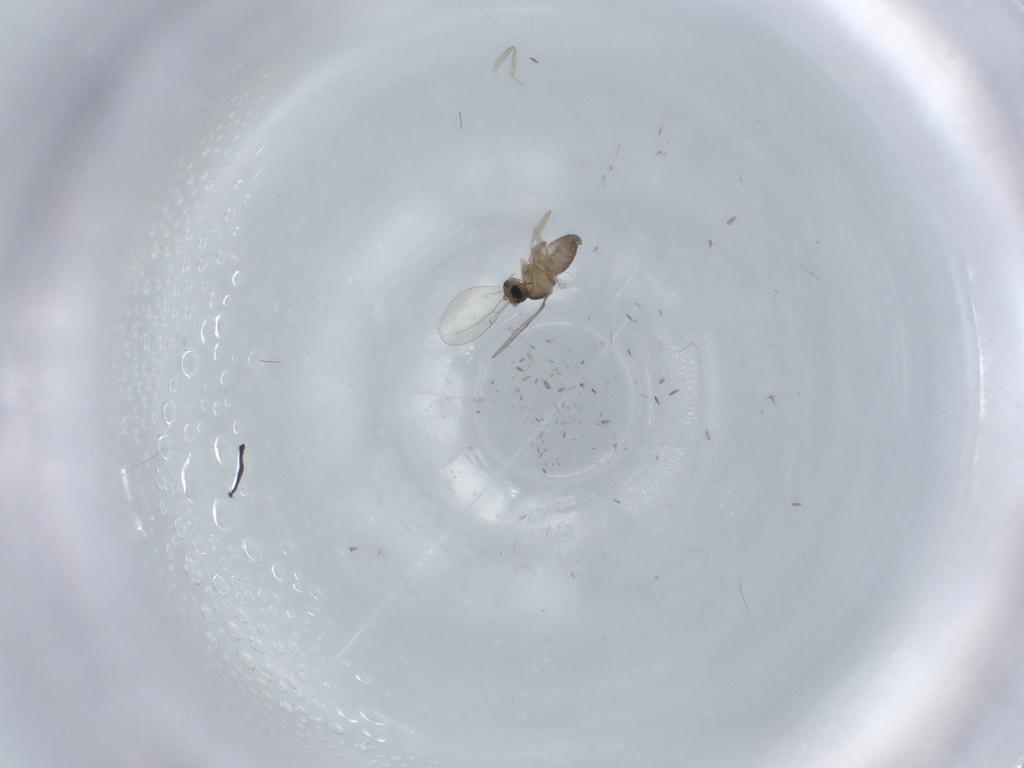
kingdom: Animalia
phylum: Arthropoda
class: Insecta
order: Diptera
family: Cecidomyiidae
